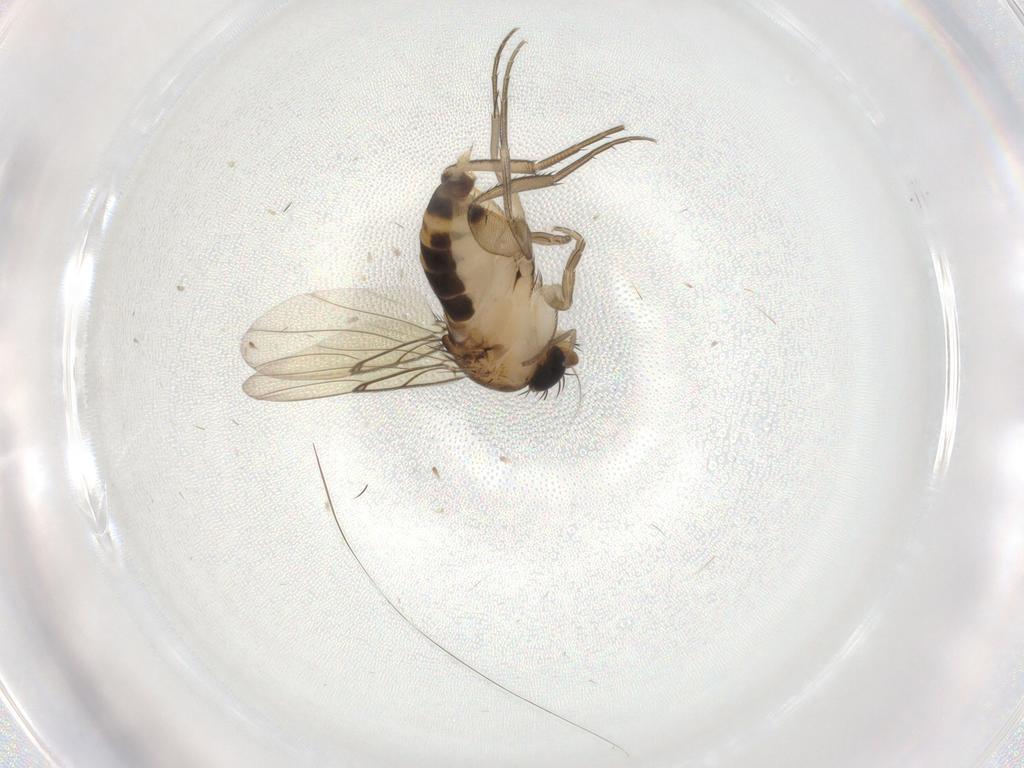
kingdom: Animalia
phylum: Arthropoda
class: Insecta
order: Diptera
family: Phoridae
